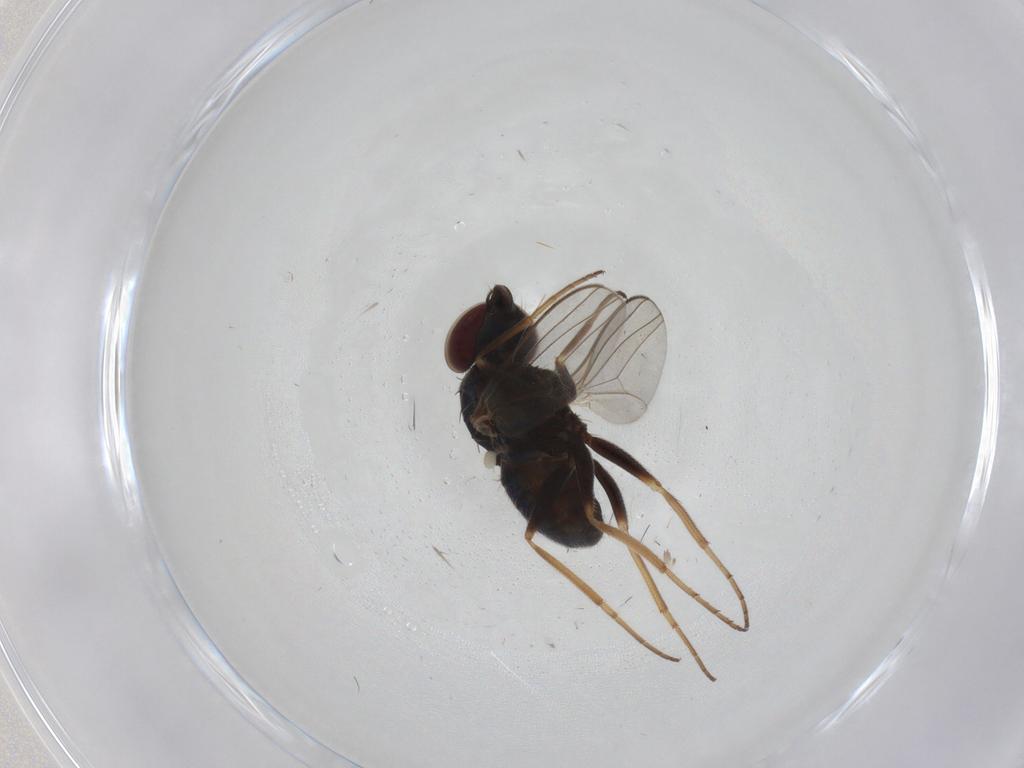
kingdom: Animalia
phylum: Arthropoda
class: Insecta
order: Diptera
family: Dolichopodidae
